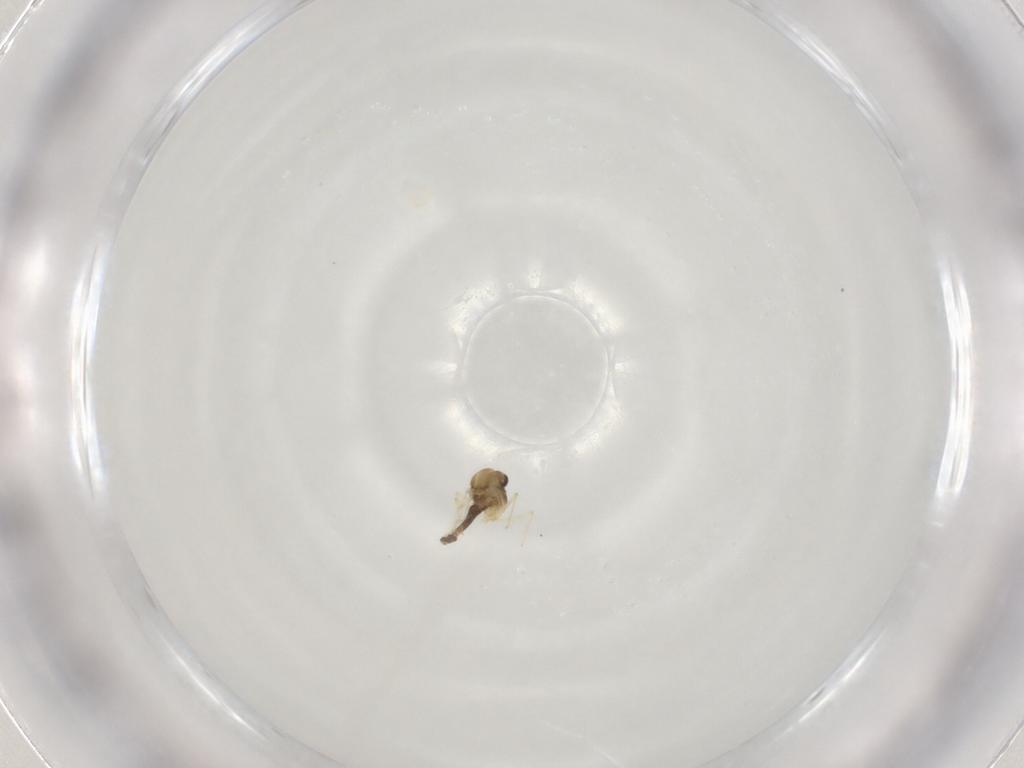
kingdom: Animalia
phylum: Arthropoda
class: Insecta
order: Diptera
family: Chironomidae
